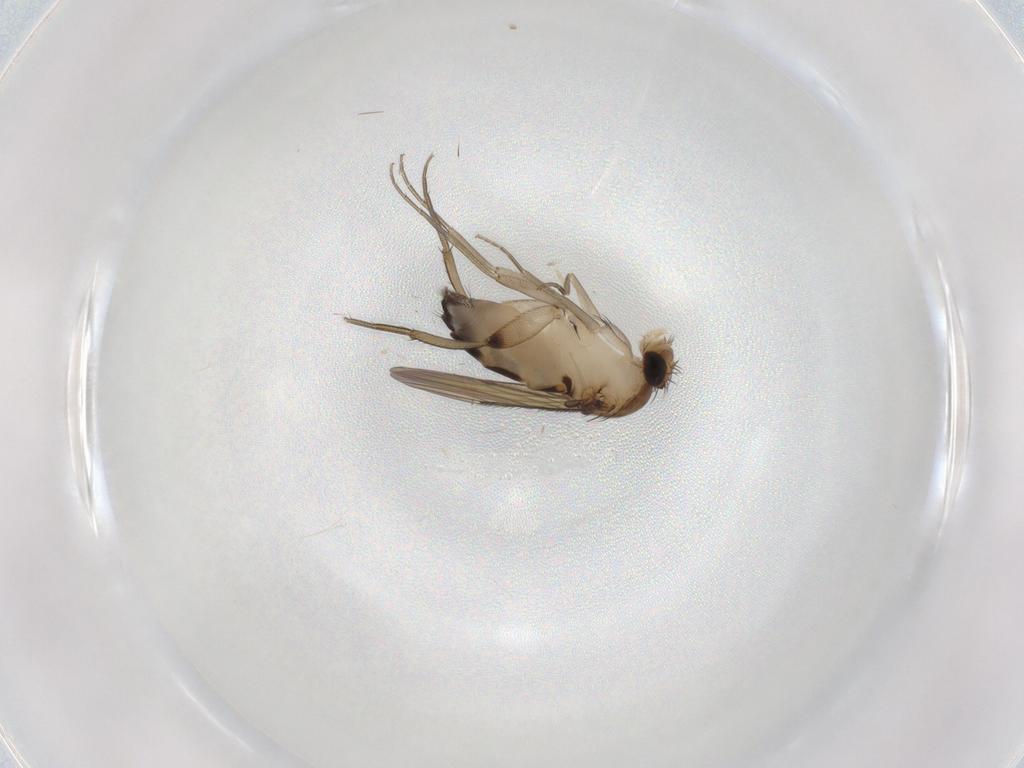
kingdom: Animalia
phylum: Arthropoda
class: Insecta
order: Diptera
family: Phoridae
